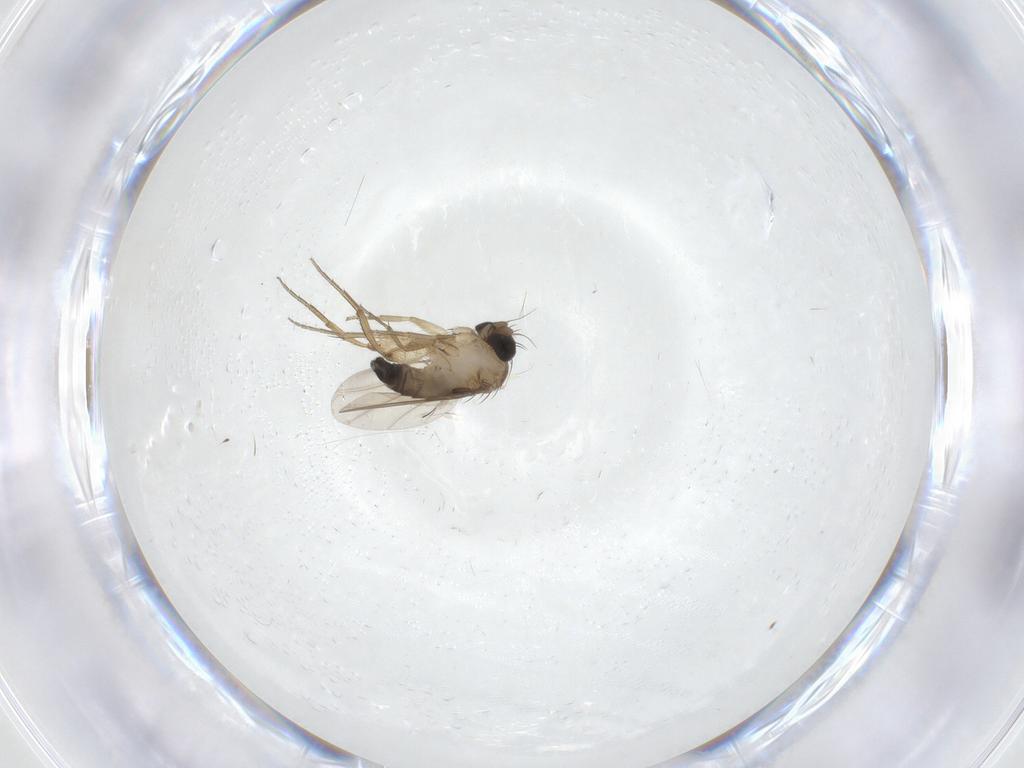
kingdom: Animalia
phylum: Arthropoda
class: Insecta
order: Diptera
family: Phoridae
